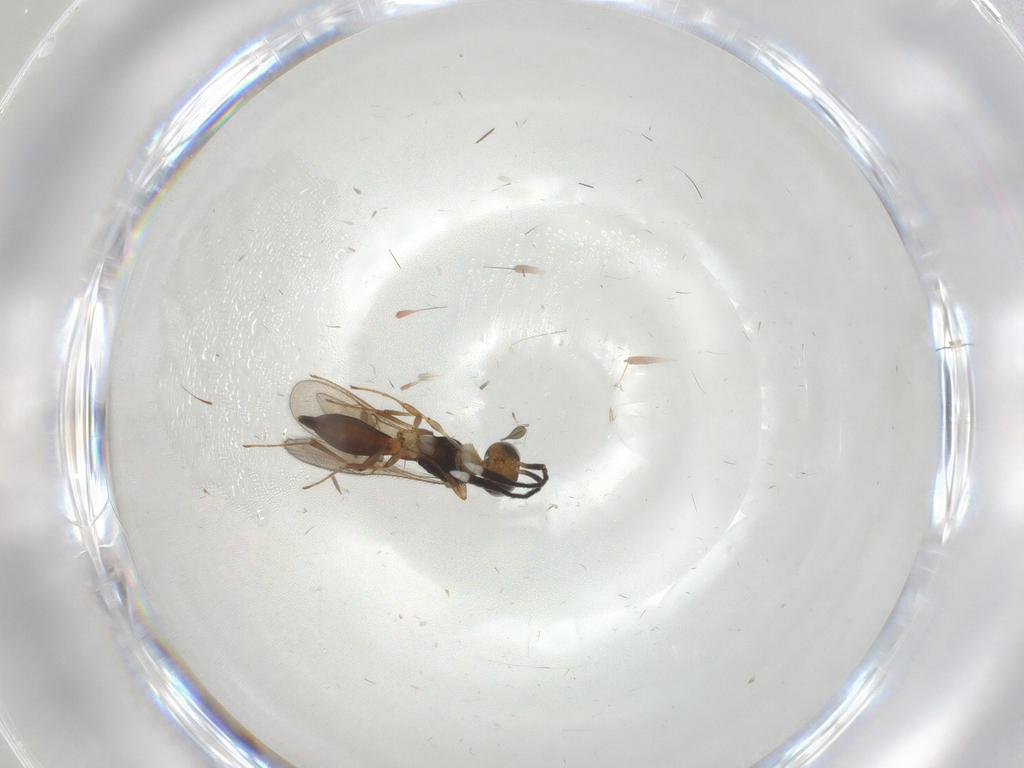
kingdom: Animalia
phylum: Arthropoda
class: Insecta
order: Hymenoptera
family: Scelionidae
